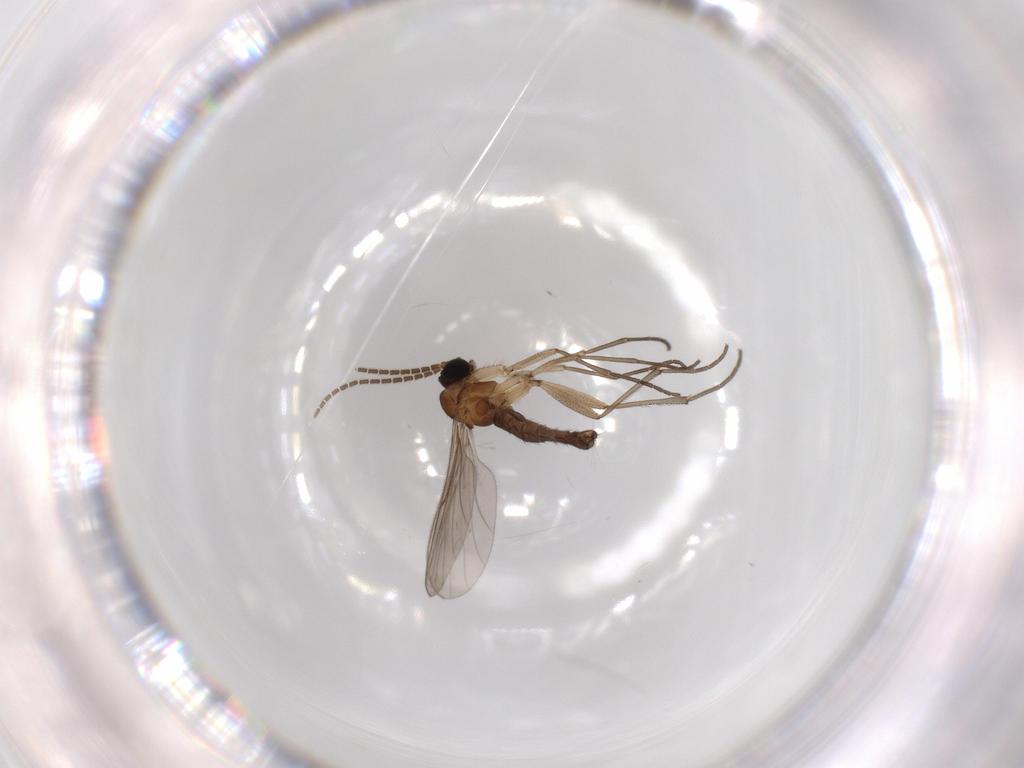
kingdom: Animalia
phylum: Arthropoda
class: Insecta
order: Diptera
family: Sciaridae
